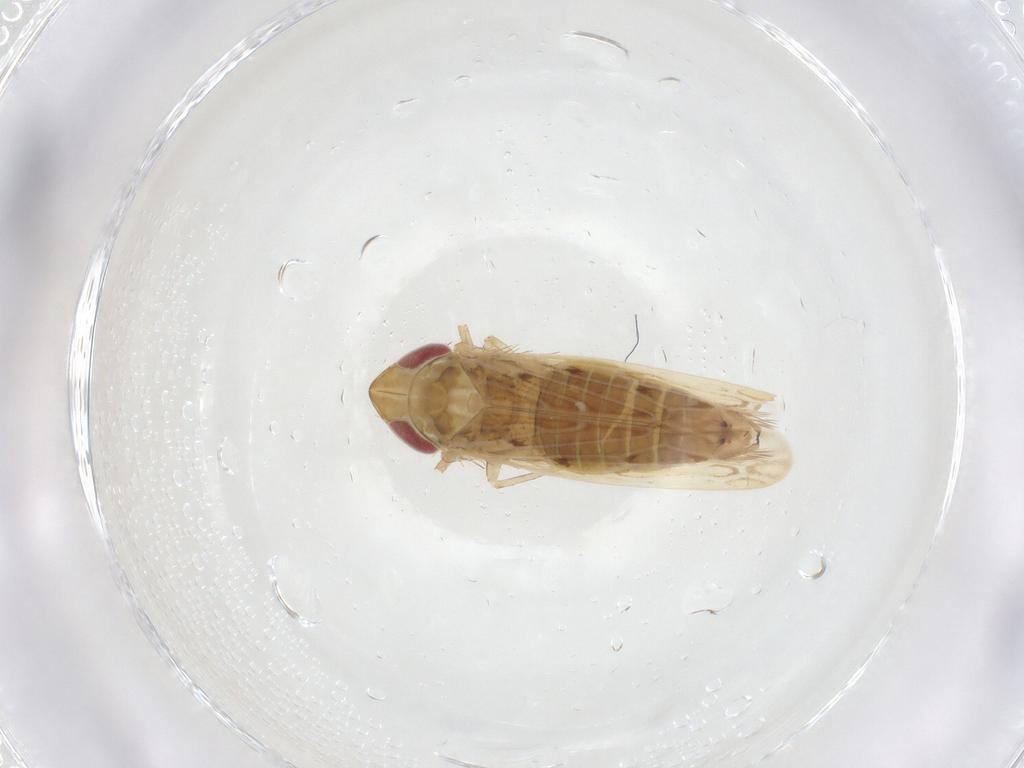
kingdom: Animalia
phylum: Arthropoda
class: Insecta
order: Hemiptera
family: Cicadellidae
